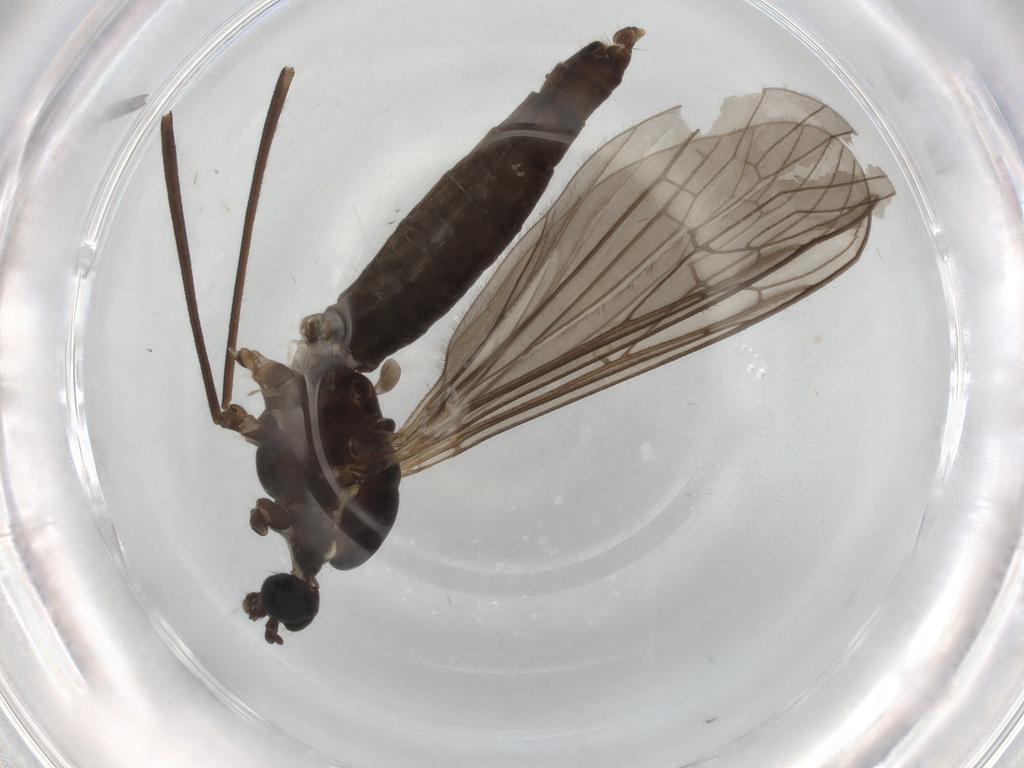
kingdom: Animalia
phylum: Arthropoda
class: Insecta
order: Diptera
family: Limoniidae
